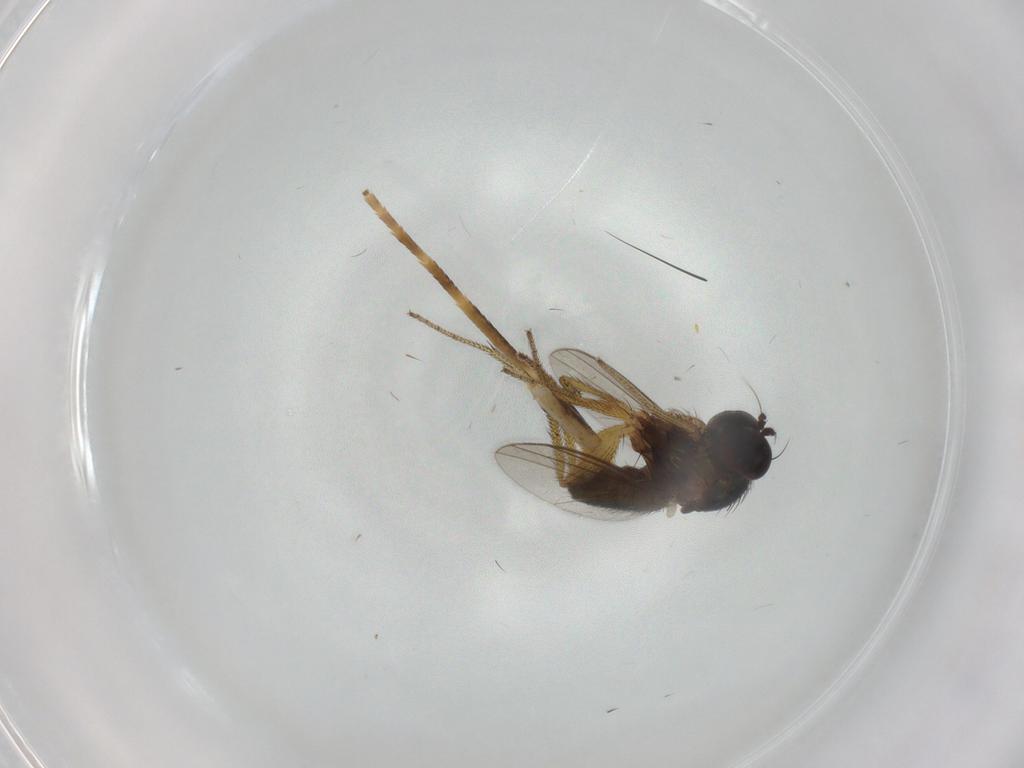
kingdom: Animalia
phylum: Arthropoda
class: Insecta
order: Diptera
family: Dolichopodidae
